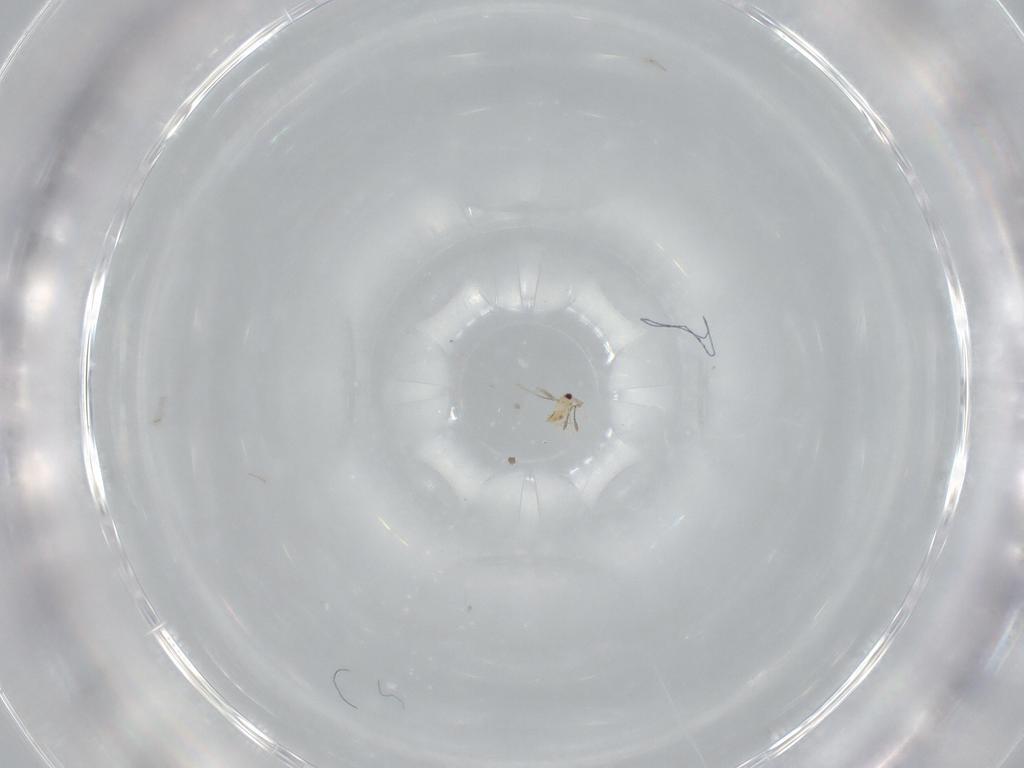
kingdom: Animalia
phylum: Arthropoda
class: Insecta
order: Hymenoptera
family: Mymaridae
